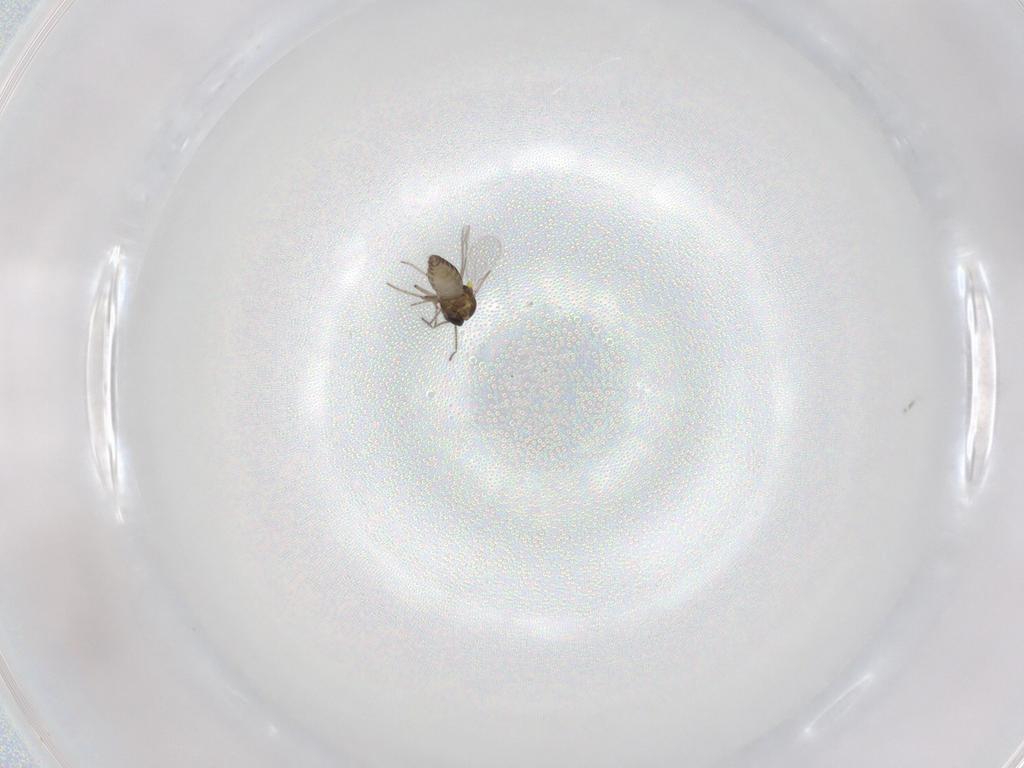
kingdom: Animalia
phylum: Arthropoda
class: Insecta
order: Diptera
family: Ceratopogonidae
